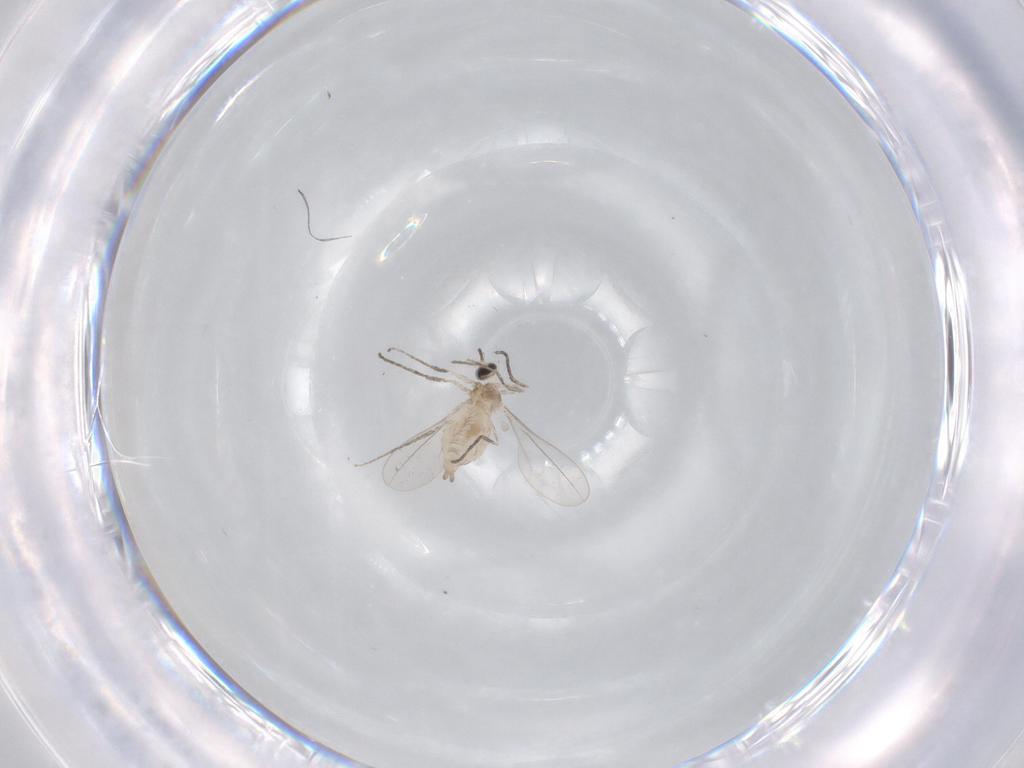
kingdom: Animalia
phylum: Arthropoda
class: Insecta
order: Diptera
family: Cecidomyiidae
